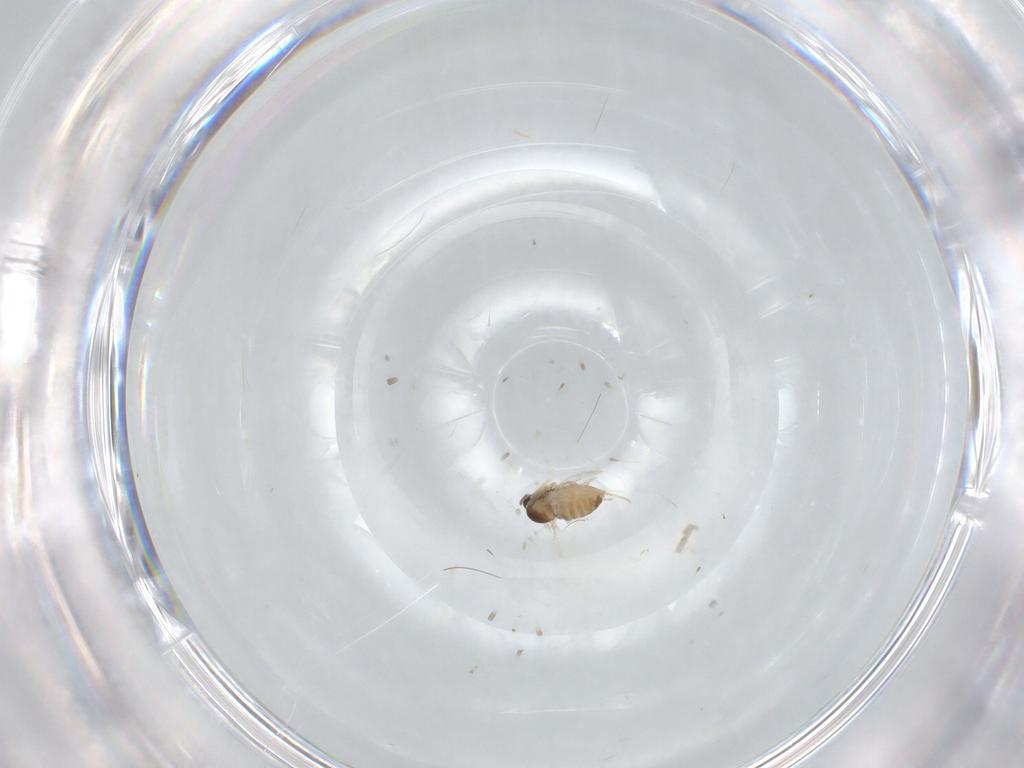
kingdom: Animalia
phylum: Arthropoda
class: Insecta
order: Diptera
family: Cecidomyiidae
